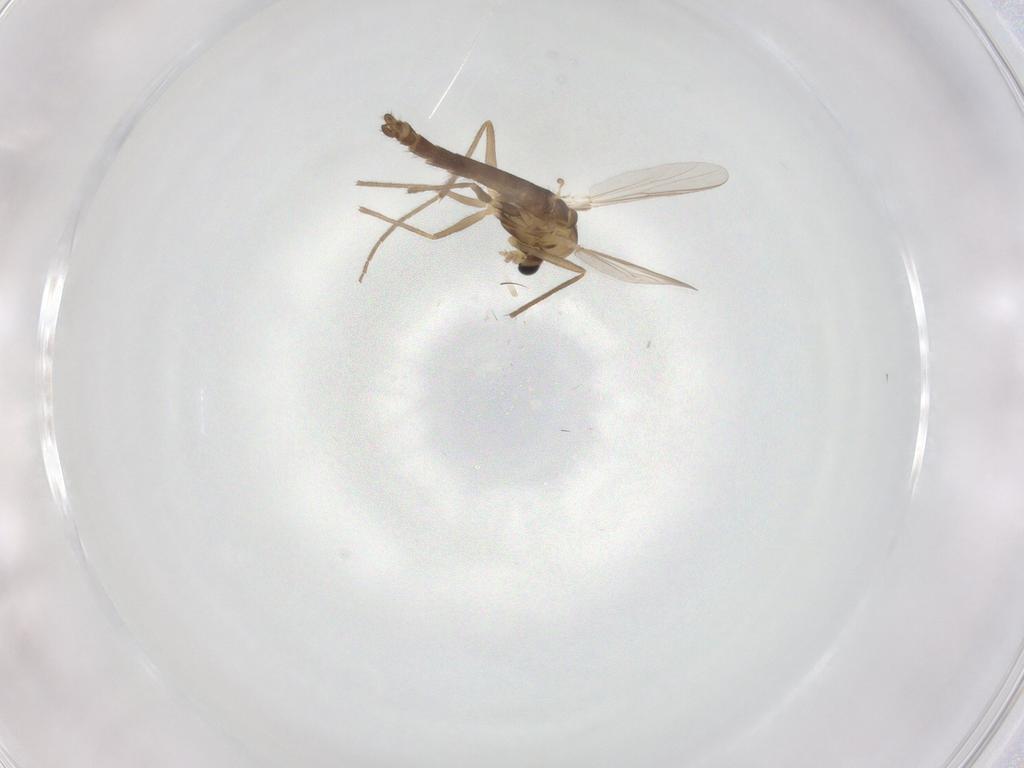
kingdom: Animalia
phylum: Arthropoda
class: Insecta
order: Diptera
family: Chironomidae
